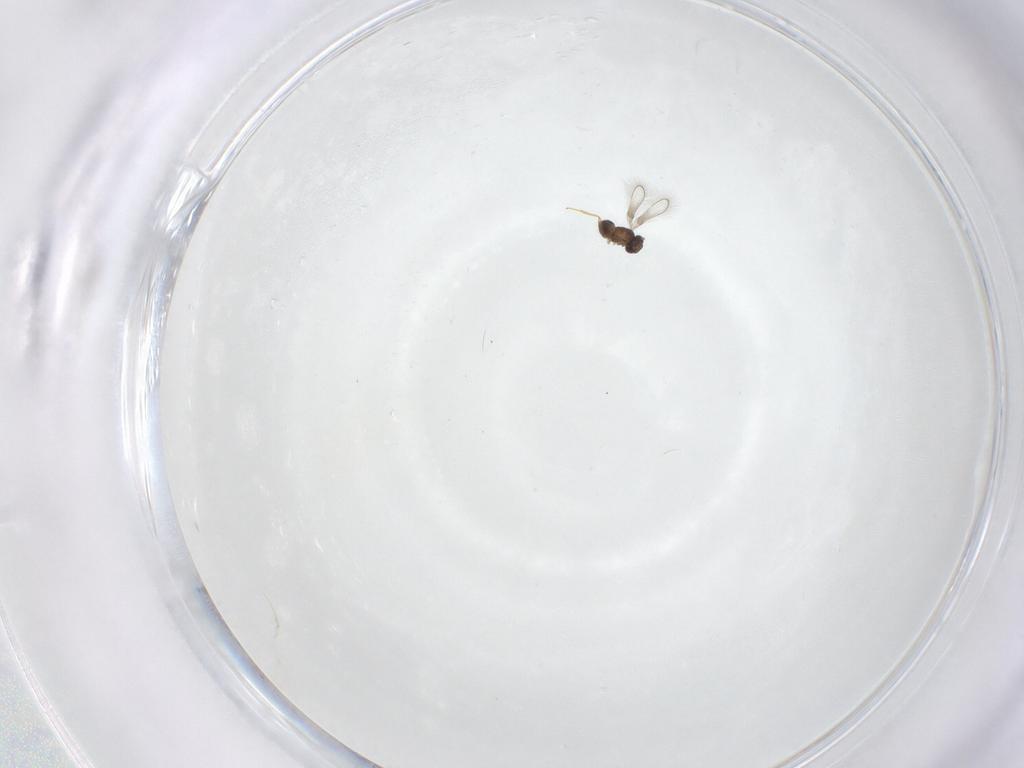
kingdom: Animalia
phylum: Arthropoda
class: Insecta
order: Hymenoptera
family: Mymaridae
